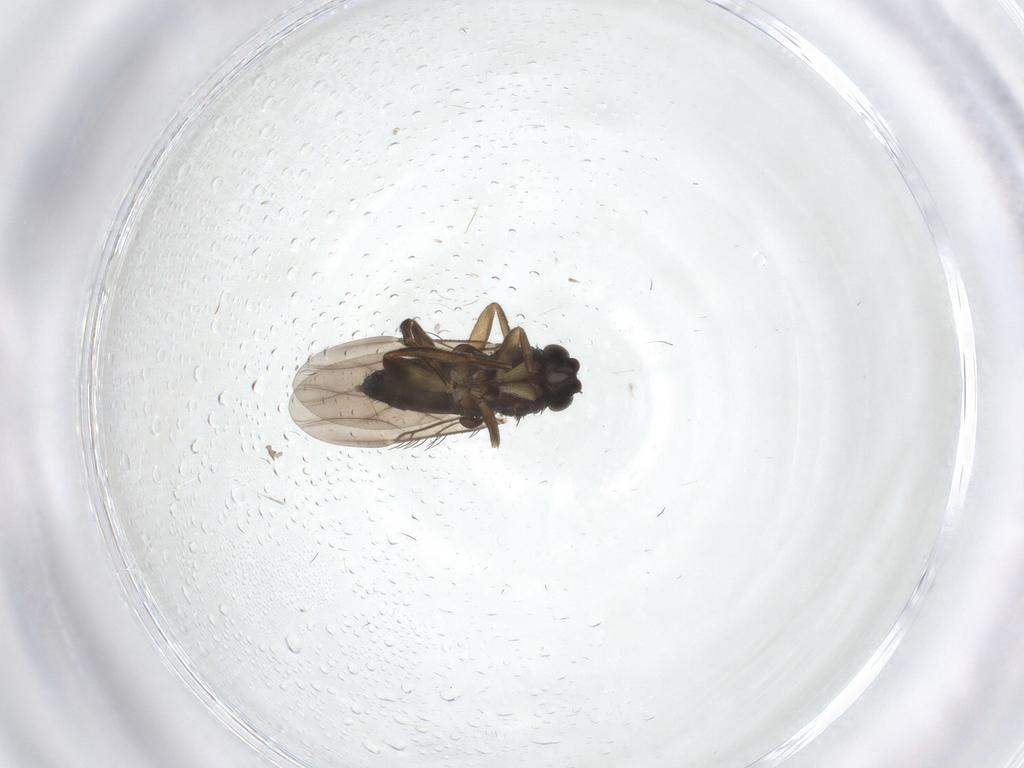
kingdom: Animalia
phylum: Arthropoda
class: Insecta
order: Diptera
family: Phoridae
